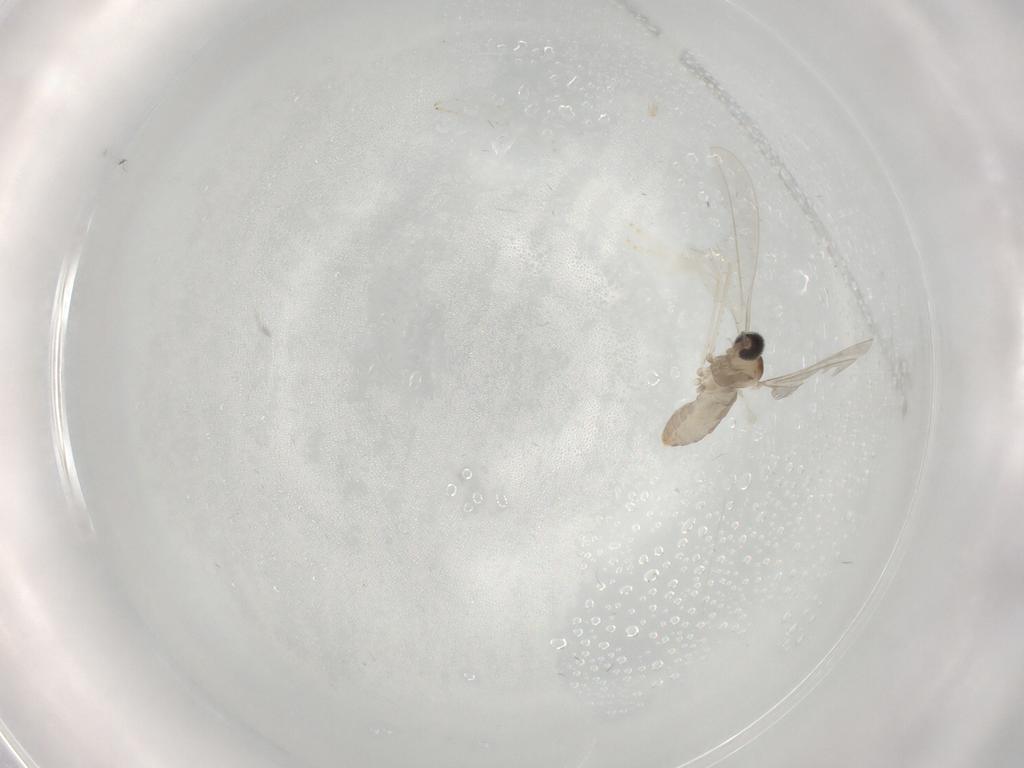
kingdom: Animalia
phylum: Arthropoda
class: Insecta
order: Diptera
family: Cecidomyiidae
